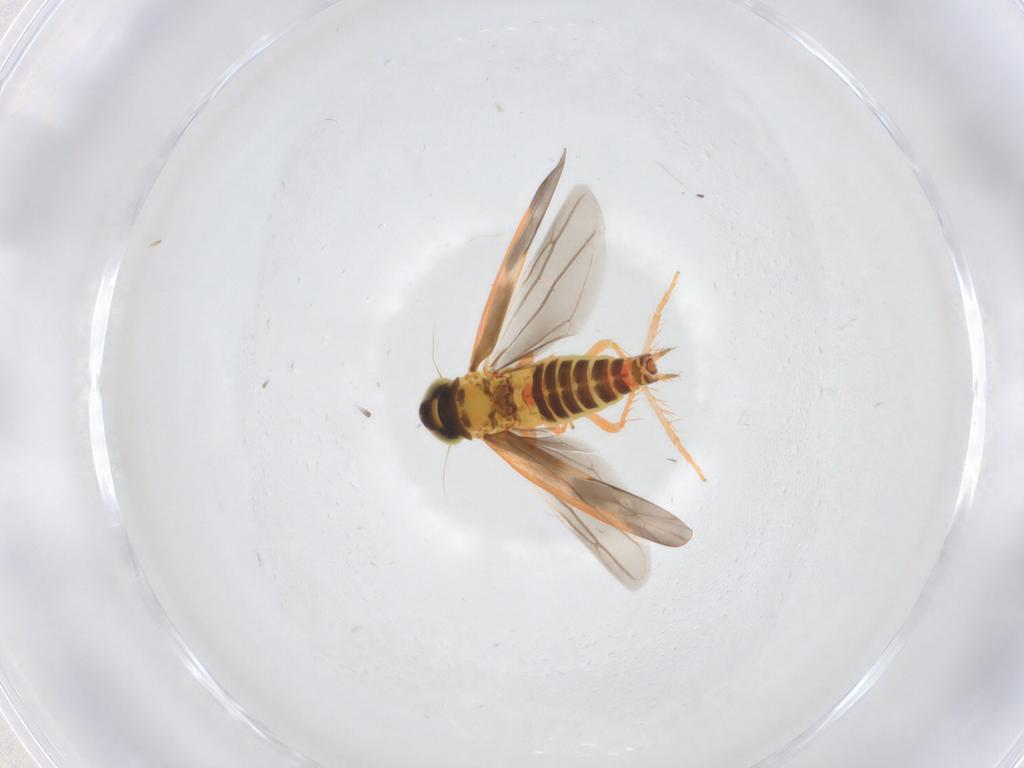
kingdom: Animalia
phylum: Arthropoda
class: Insecta
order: Hemiptera
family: Cicadellidae
